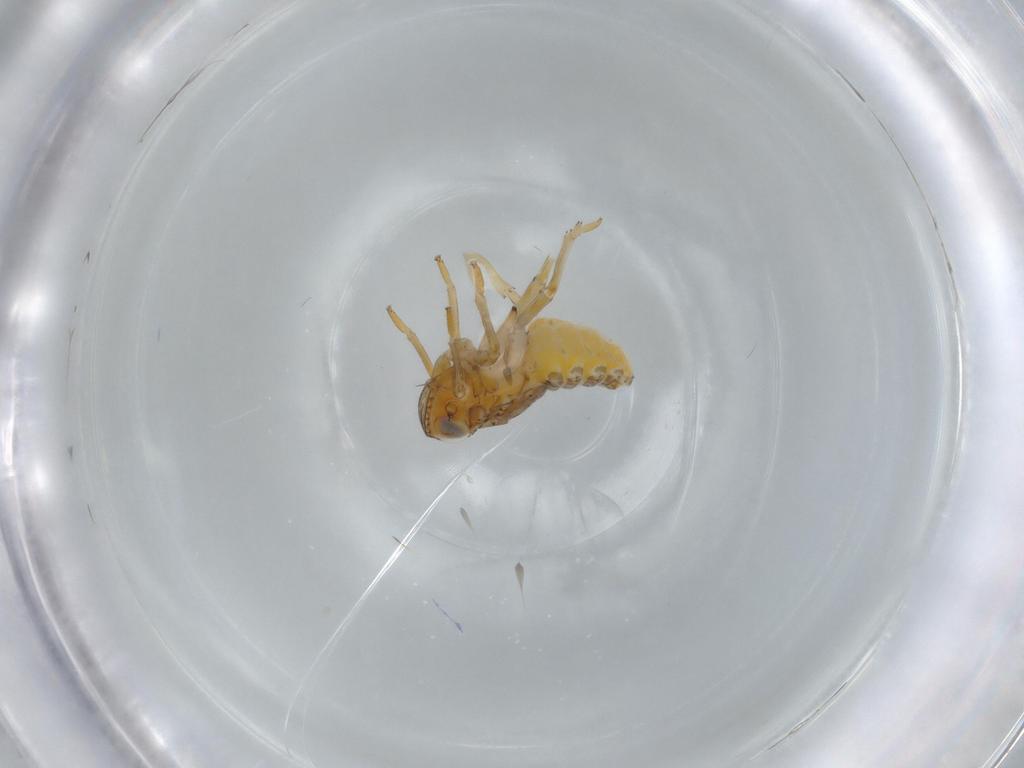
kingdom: Animalia
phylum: Arthropoda
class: Insecta
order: Hemiptera
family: Issidae
